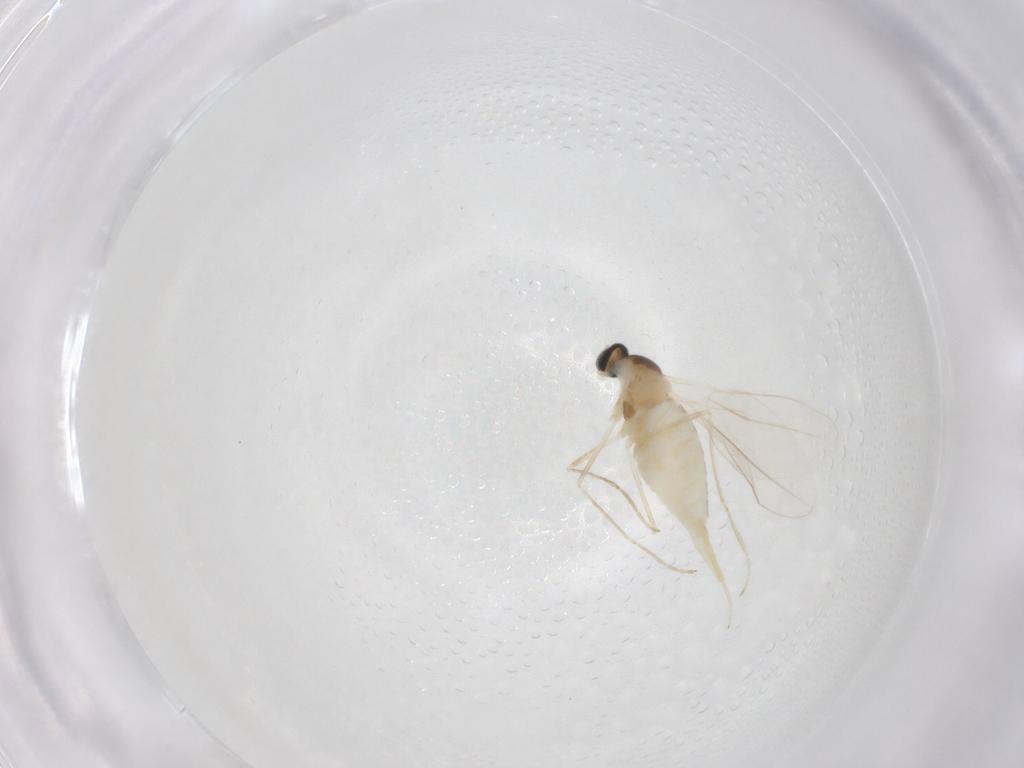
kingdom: Animalia
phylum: Arthropoda
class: Insecta
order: Diptera
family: Cecidomyiidae
